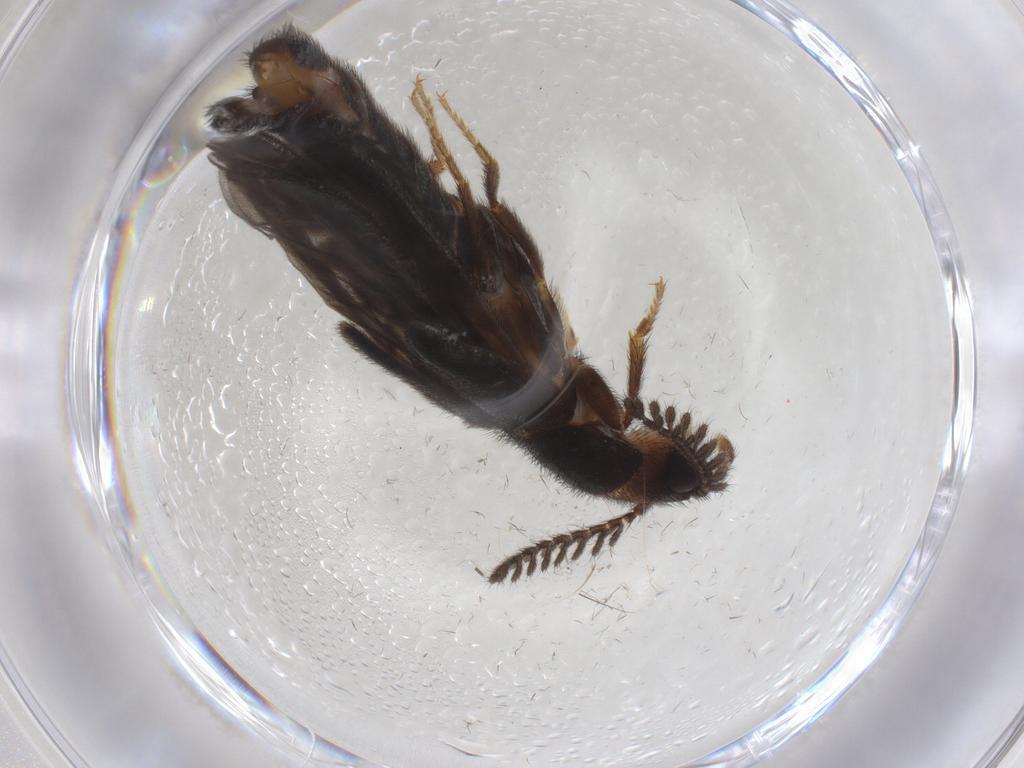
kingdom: Animalia
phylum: Arthropoda
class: Insecta
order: Coleoptera
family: Phengodidae
